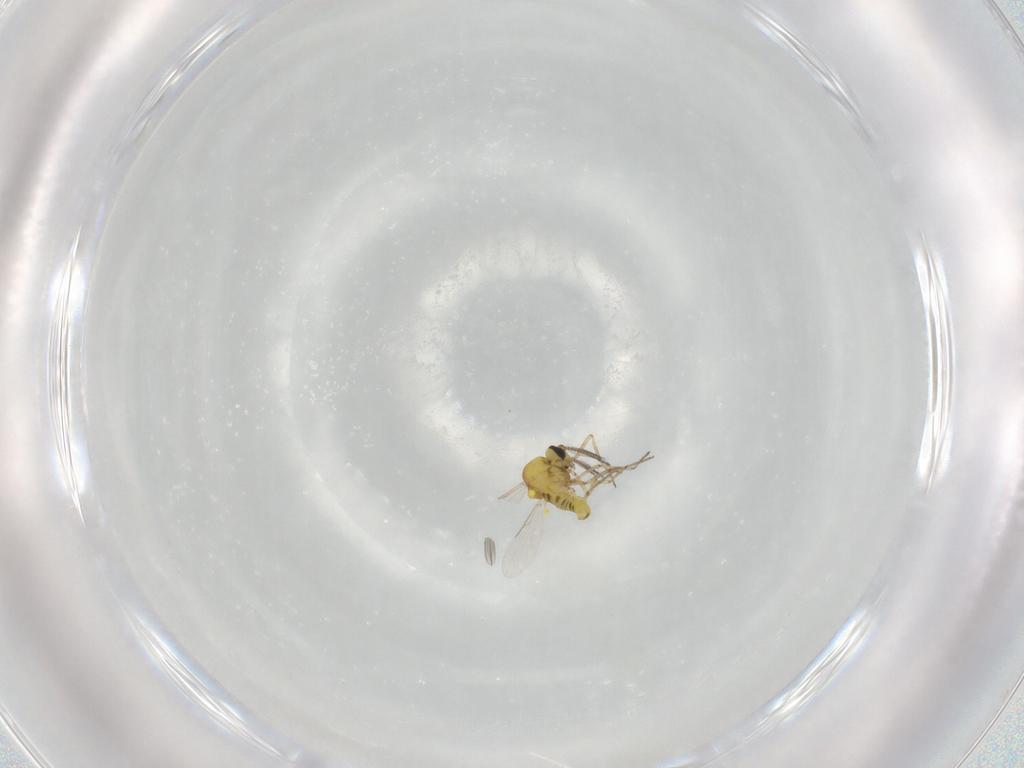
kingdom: Animalia
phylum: Arthropoda
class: Insecta
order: Diptera
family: Ceratopogonidae
